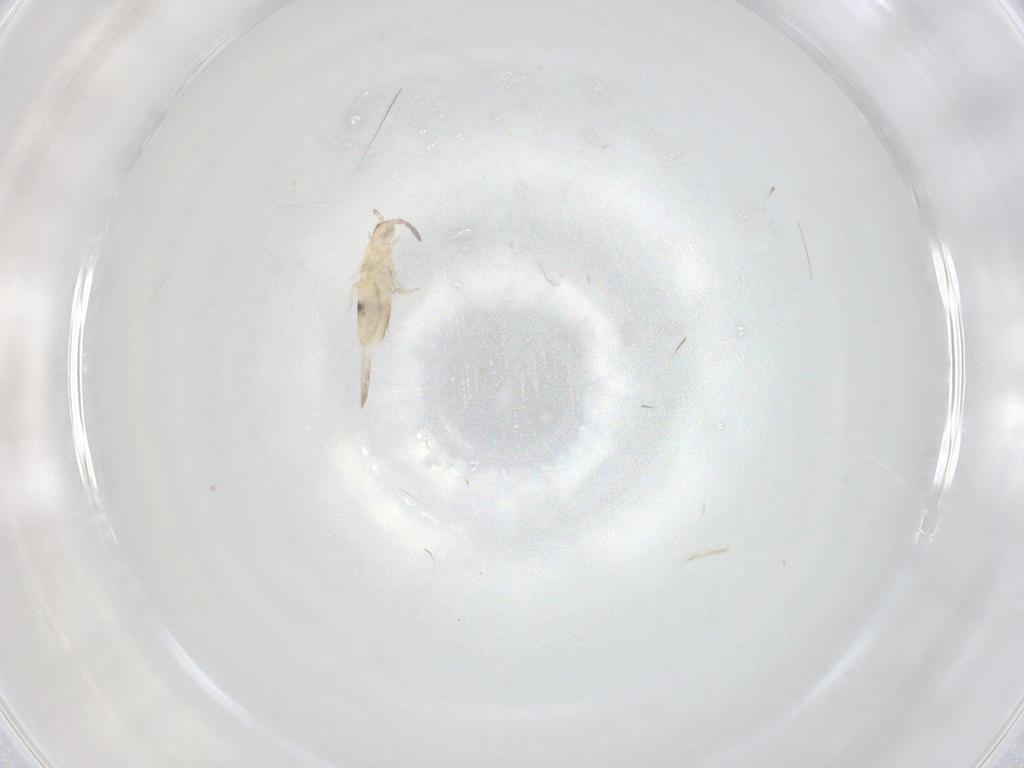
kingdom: Animalia
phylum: Arthropoda
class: Collembola
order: Entomobryomorpha
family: Entomobryidae
